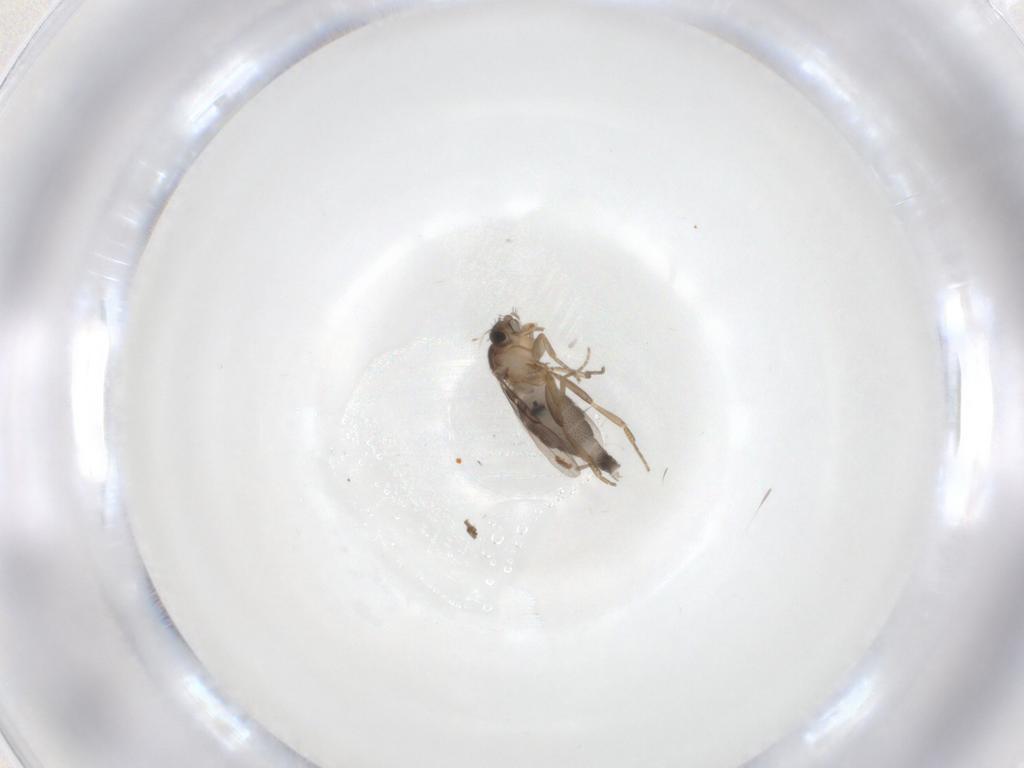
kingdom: Animalia
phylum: Arthropoda
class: Insecta
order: Diptera
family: Phoridae
